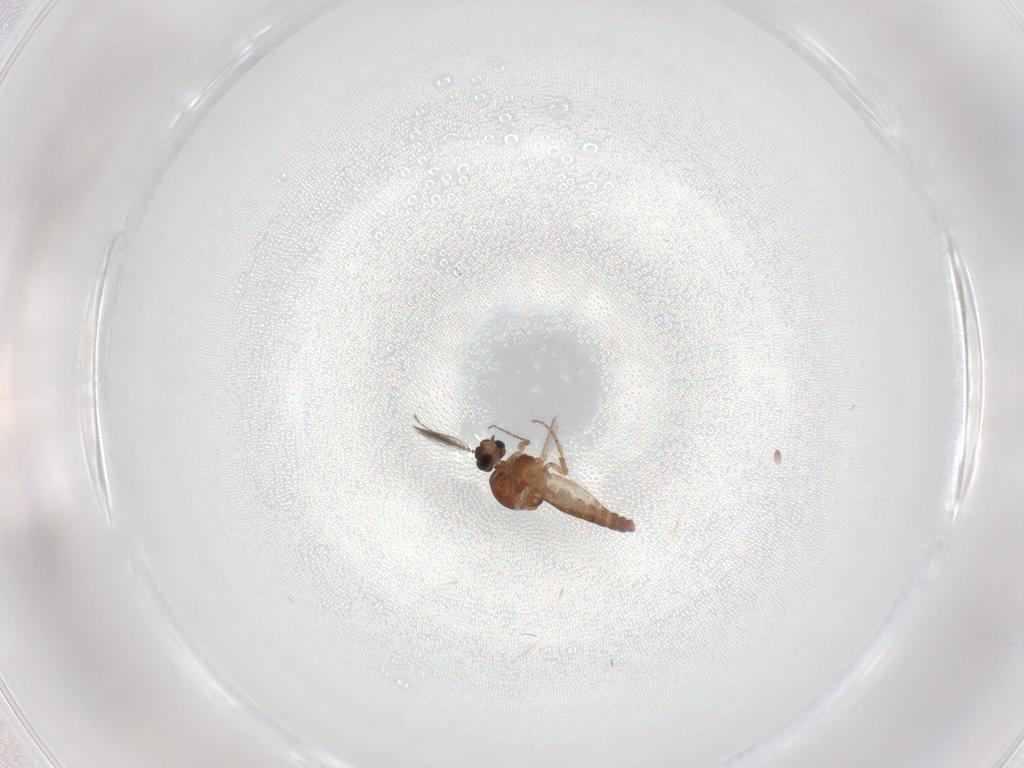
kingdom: Animalia
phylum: Arthropoda
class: Insecta
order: Diptera
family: Ceratopogonidae
